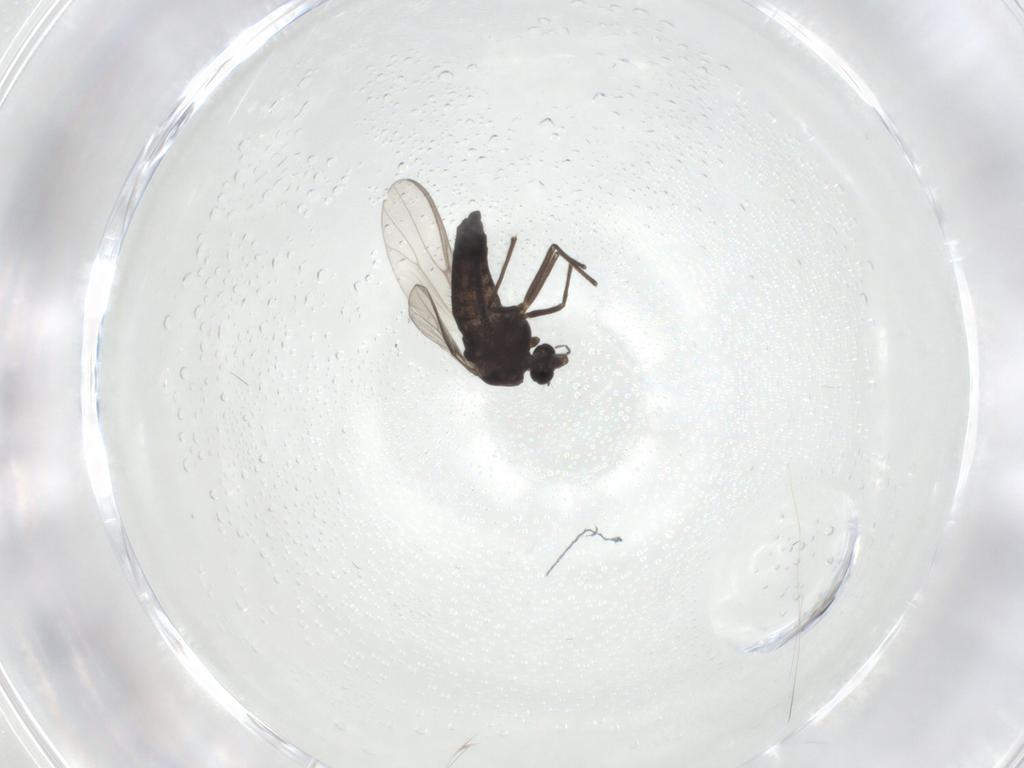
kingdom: Animalia
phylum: Arthropoda
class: Insecta
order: Diptera
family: Chironomidae
